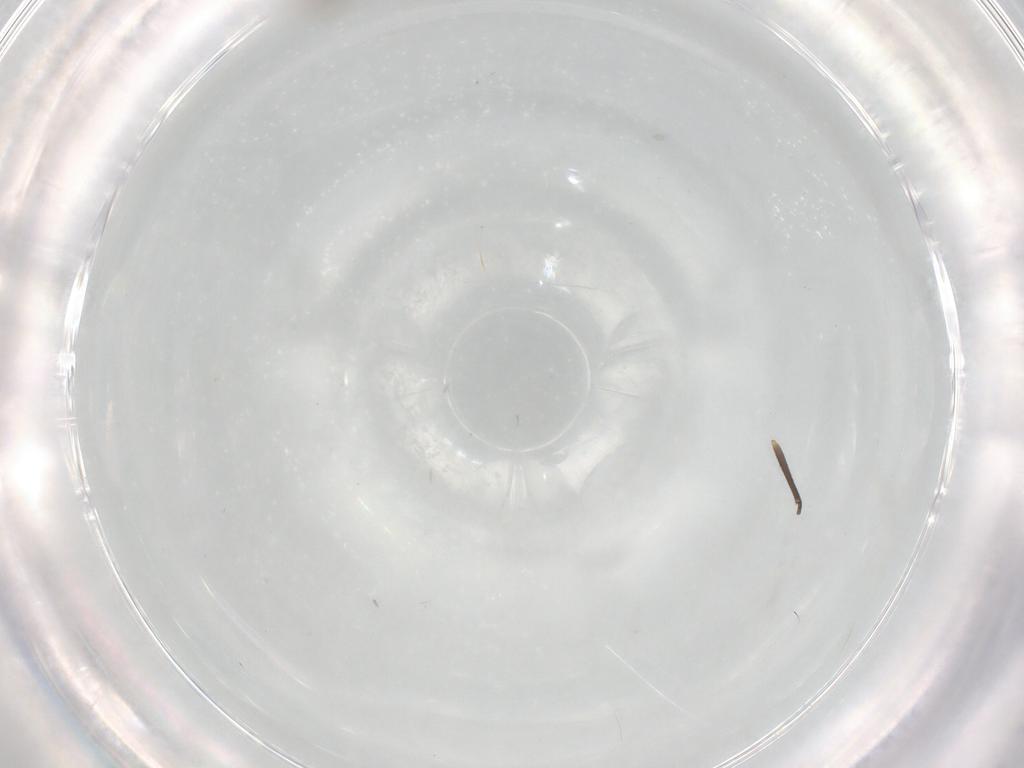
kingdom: Animalia
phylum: Arthropoda
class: Insecta
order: Diptera
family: Chironomidae
